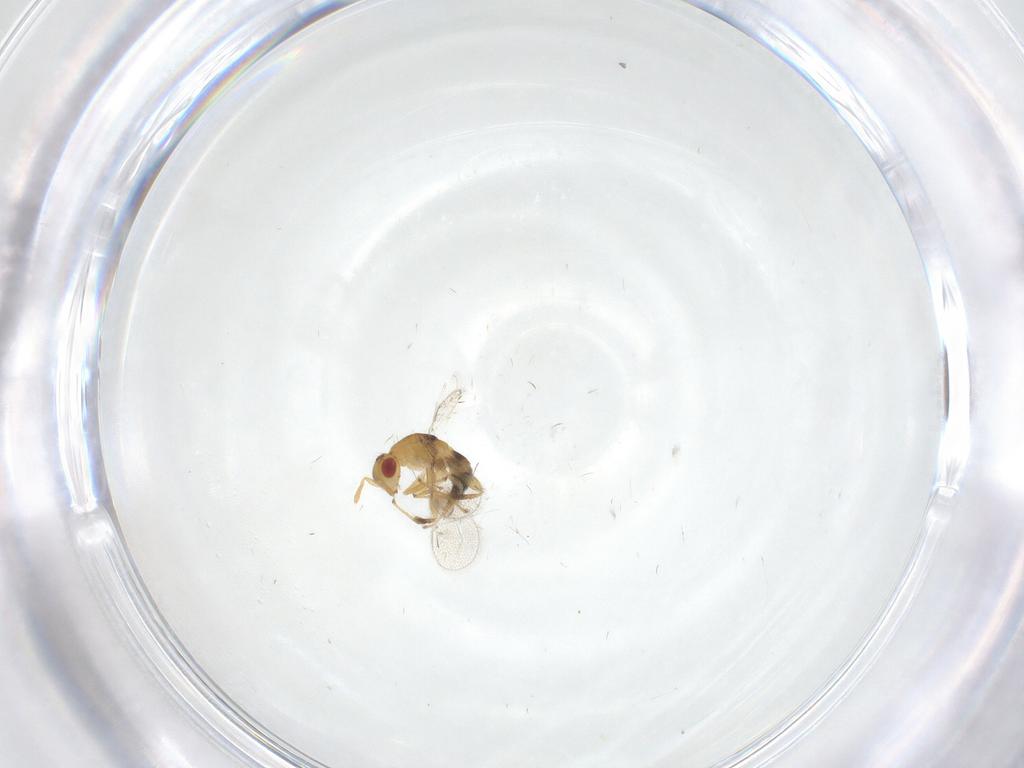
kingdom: Animalia
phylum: Arthropoda
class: Insecta
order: Hymenoptera
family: Torymidae
